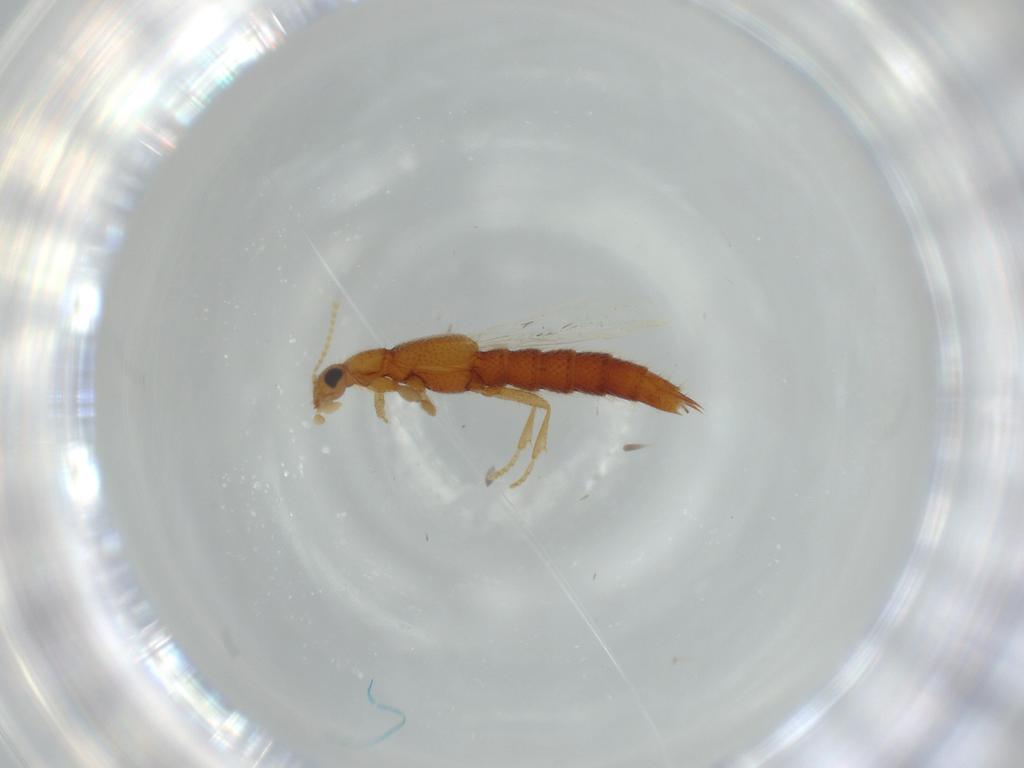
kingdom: Animalia
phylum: Arthropoda
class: Insecta
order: Coleoptera
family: Staphylinidae
